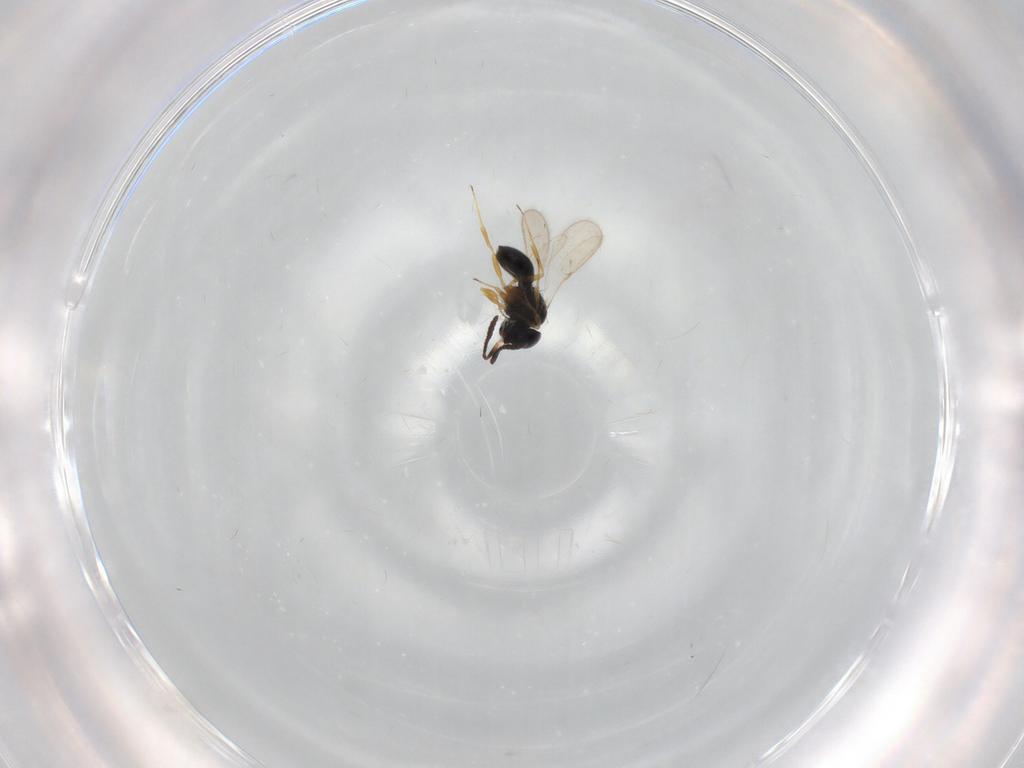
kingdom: Animalia
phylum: Arthropoda
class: Insecta
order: Hymenoptera
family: Scelionidae
